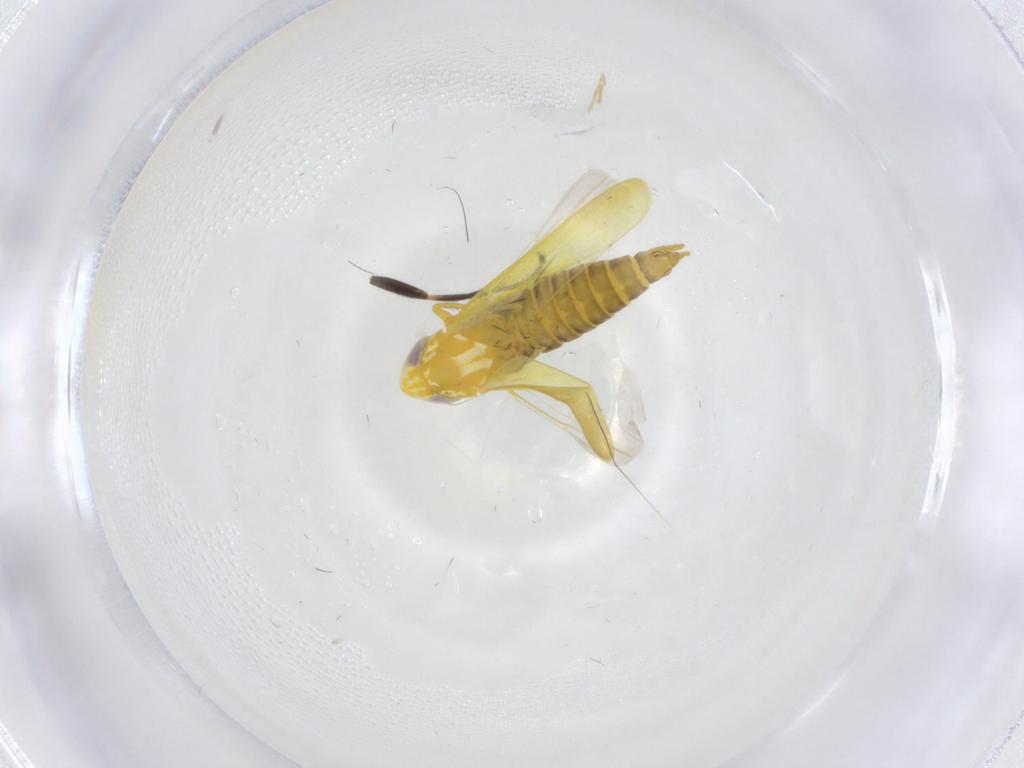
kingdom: Animalia
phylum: Arthropoda
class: Insecta
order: Hemiptera
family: Cicadellidae
